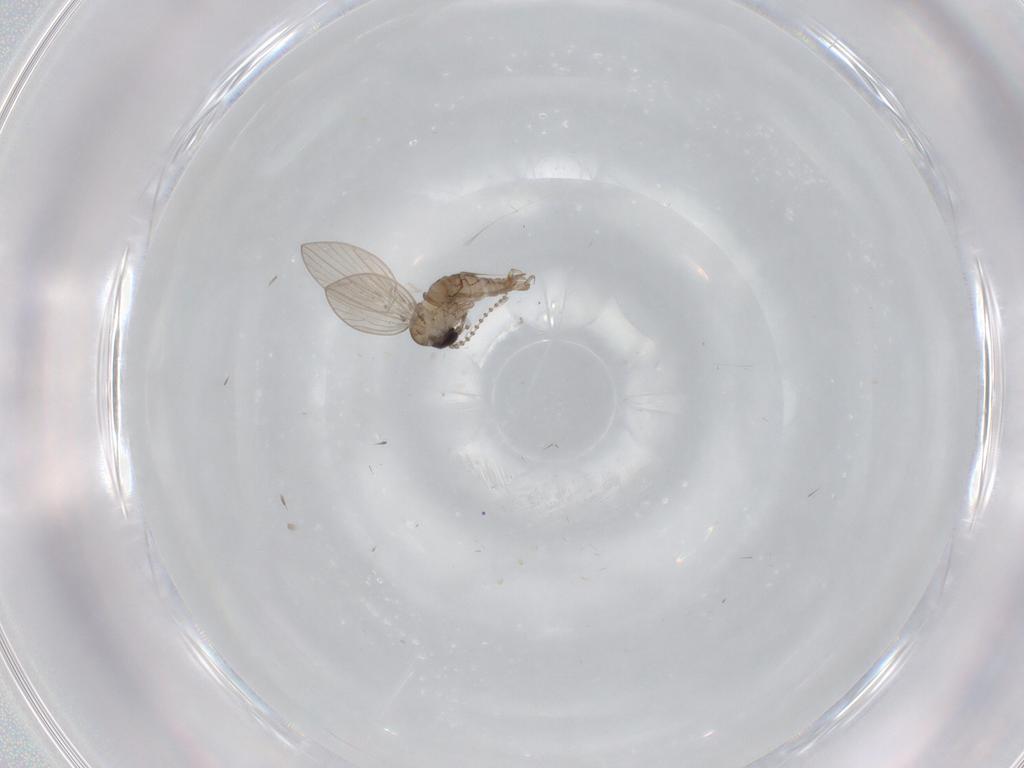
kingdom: Animalia
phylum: Arthropoda
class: Insecta
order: Diptera
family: Psychodidae
